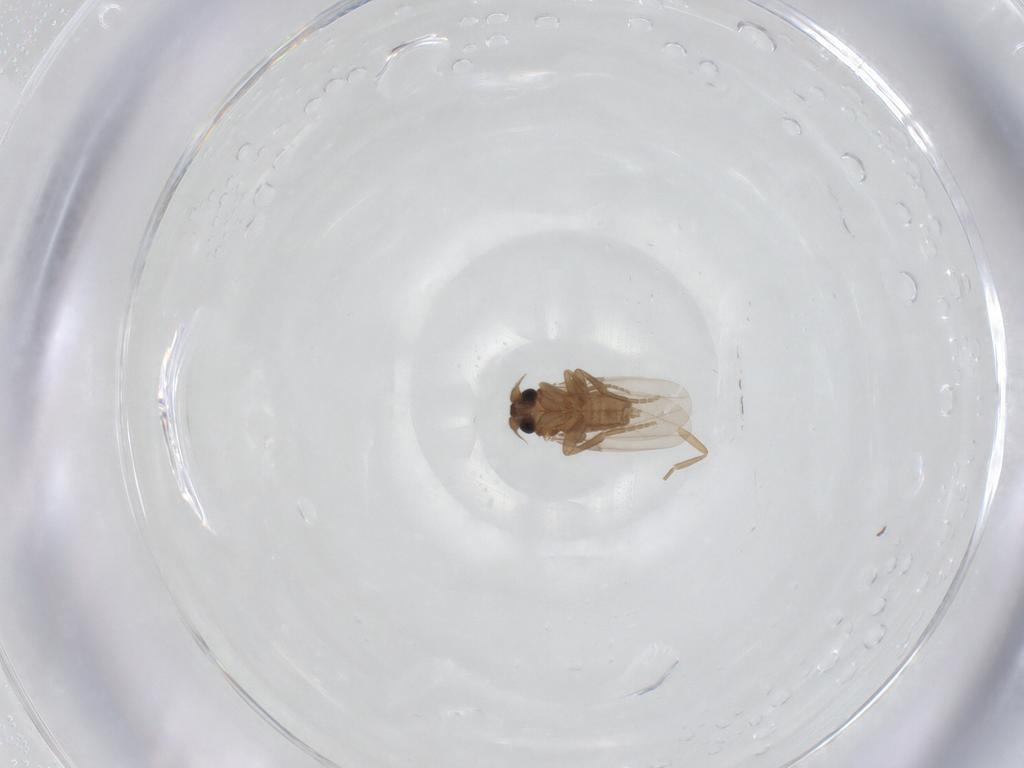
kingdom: Animalia
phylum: Arthropoda
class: Insecta
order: Diptera
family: Phoridae
